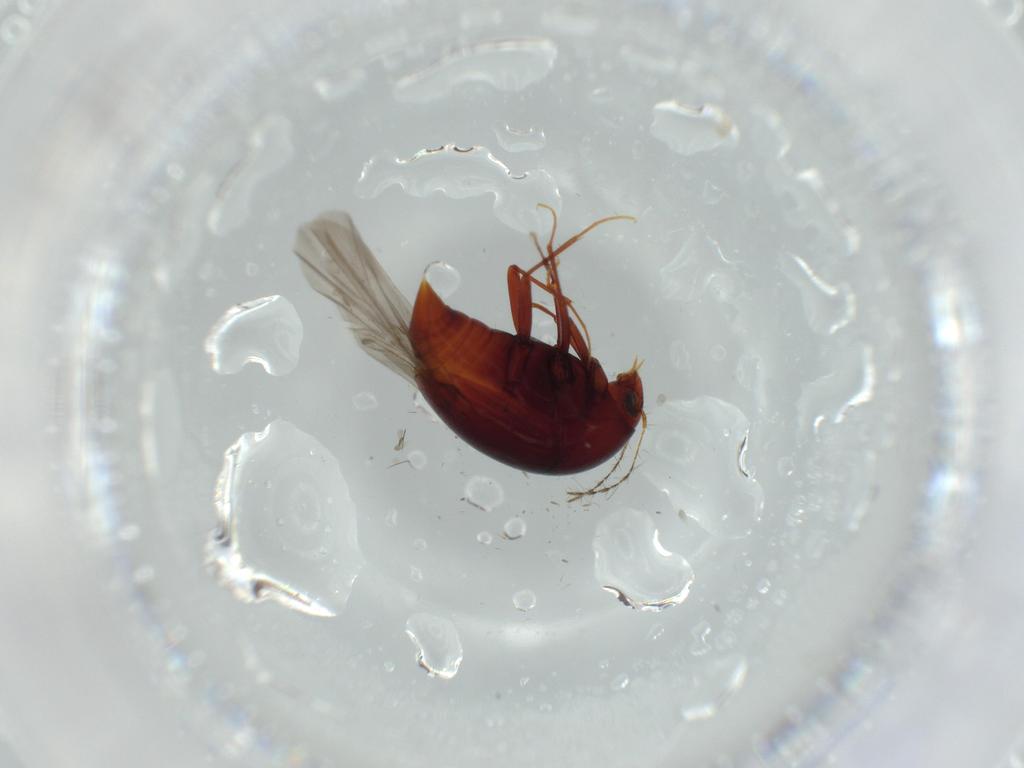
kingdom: Animalia
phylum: Arthropoda
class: Insecta
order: Coleoptera
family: Staphylinidae
